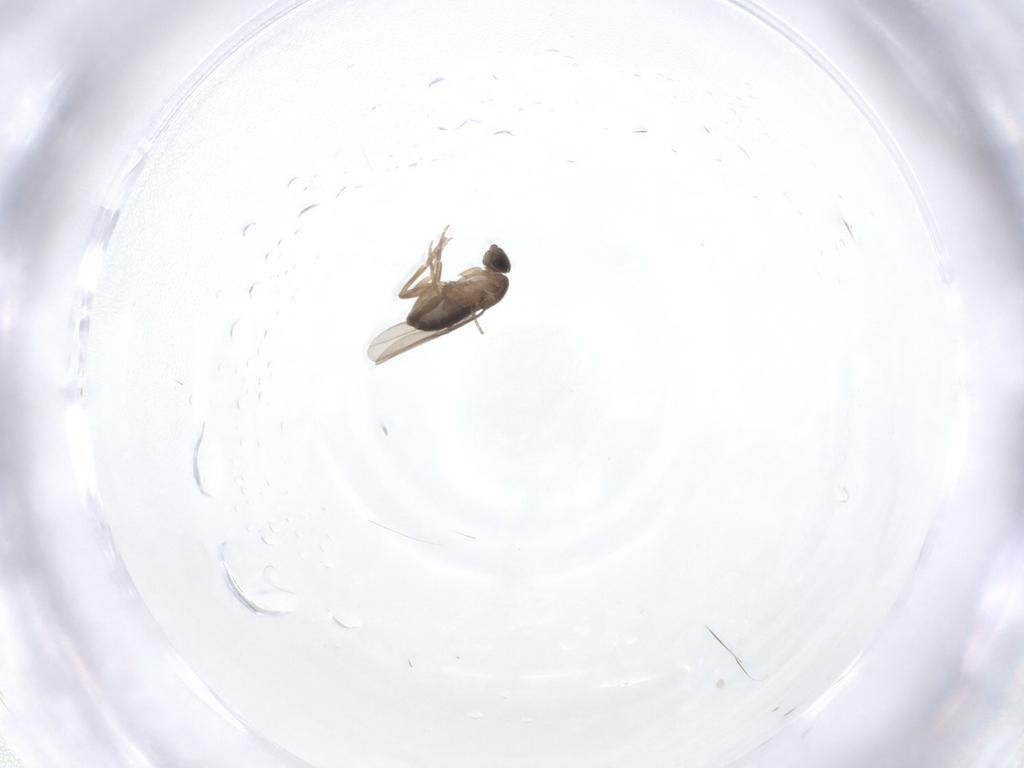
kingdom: Animalia
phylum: Arthropoda
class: Insecta
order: Diptera
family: Phoridae
